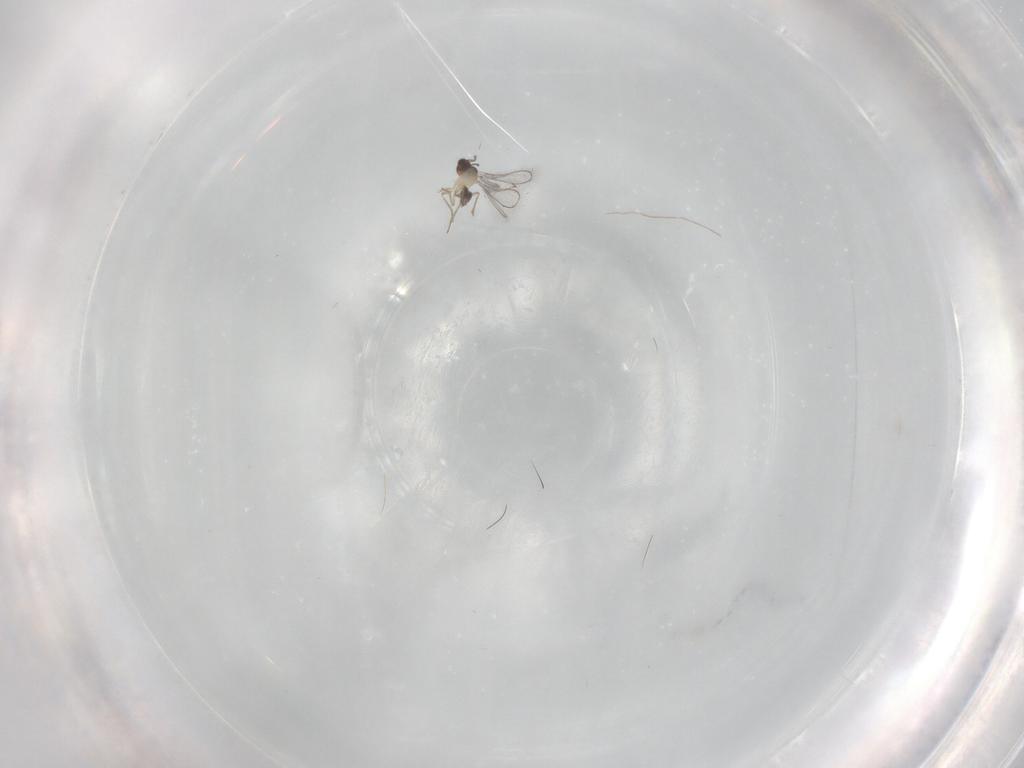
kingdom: Animalia
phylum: Arthropoda
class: Insecta
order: Hymenoptera
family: Mymaridae
